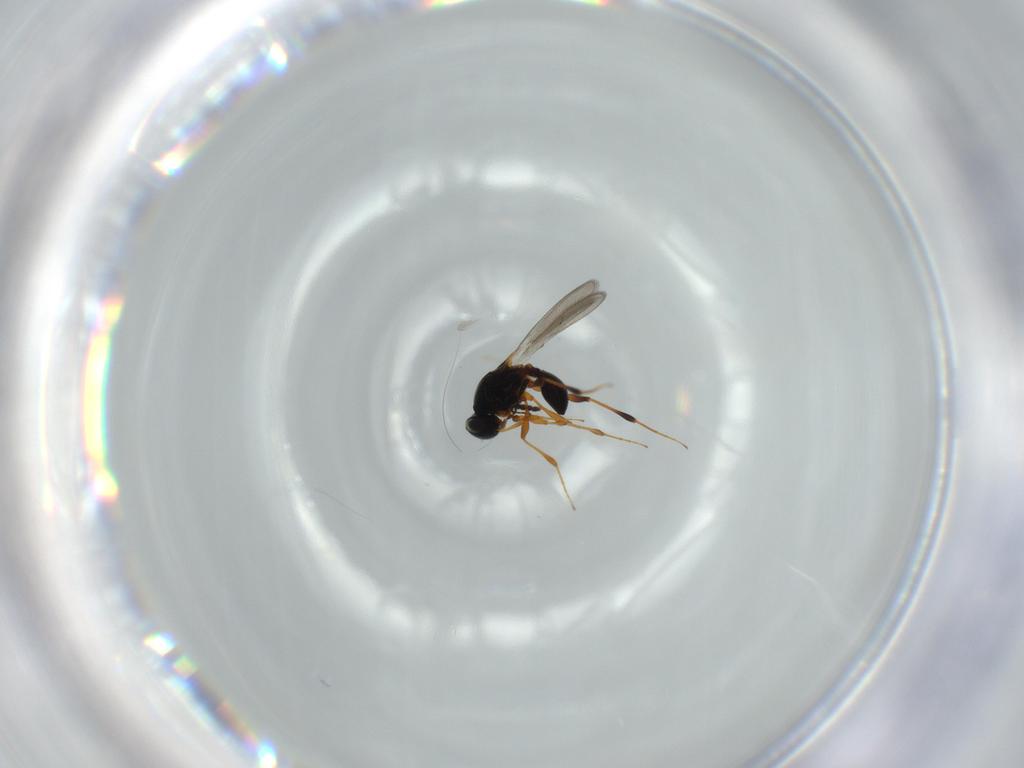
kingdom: Animalia
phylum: Arthropoda
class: Insecta
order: Hymenoptera
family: Platygastridae
